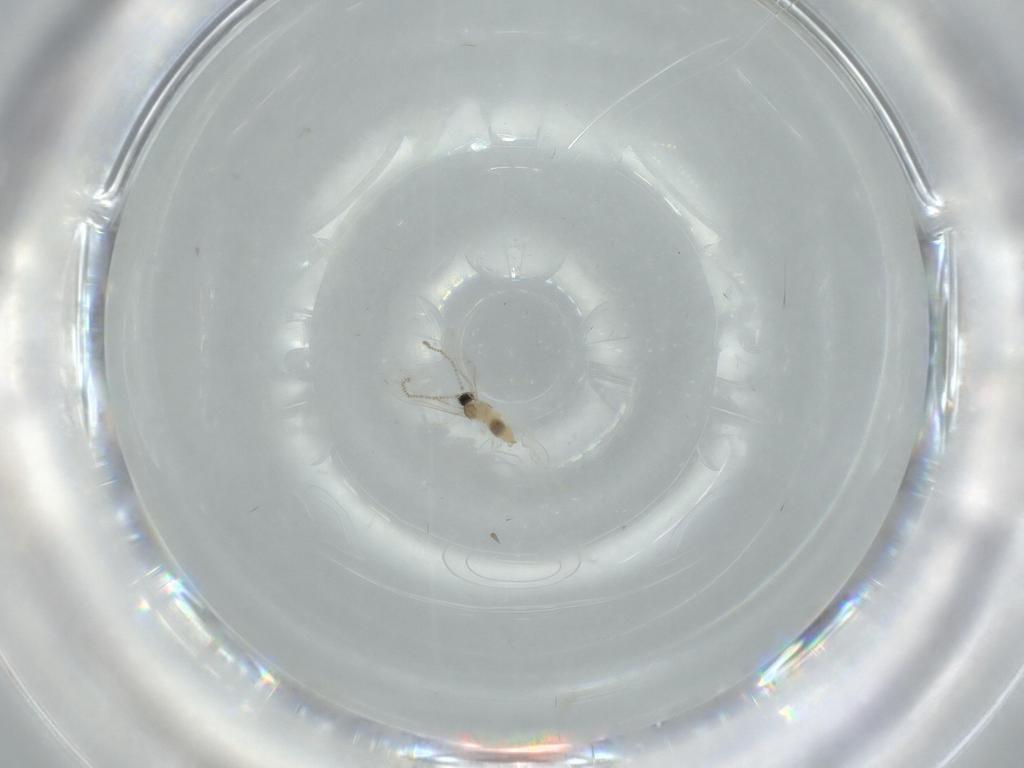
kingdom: Animalia
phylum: Arthropoda
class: Insecta
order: Diptera
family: Cecidomyiidae
